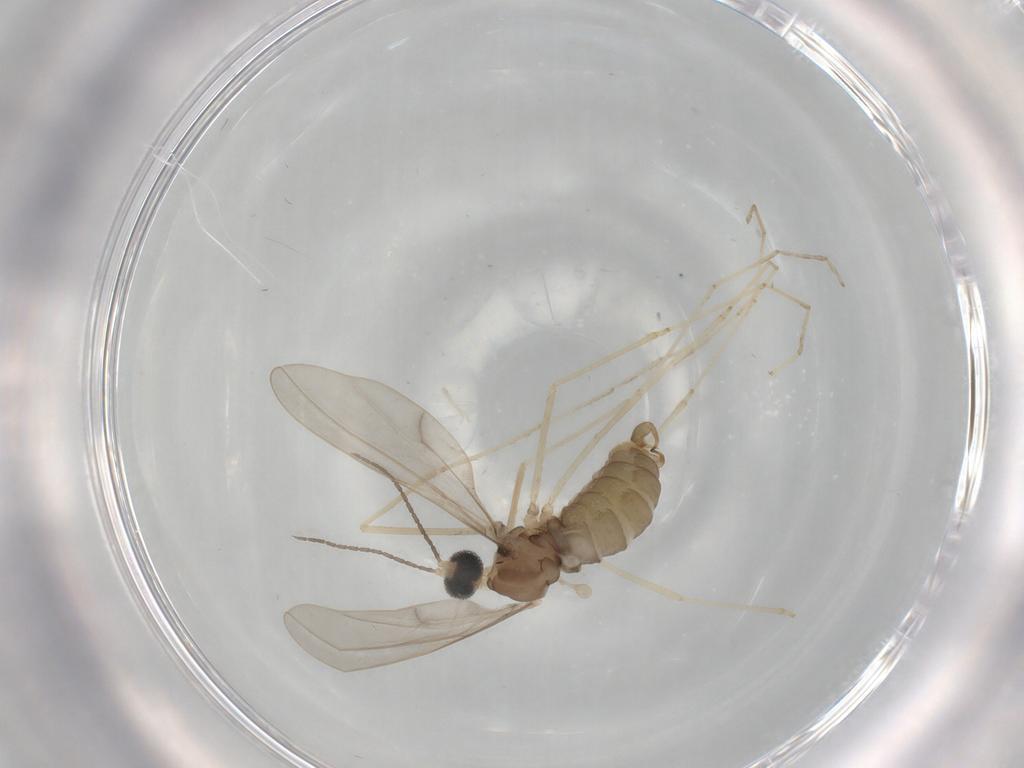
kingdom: Animalia
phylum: Arthropoda
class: Insecta
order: Diptera
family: Cecidomyiidae
